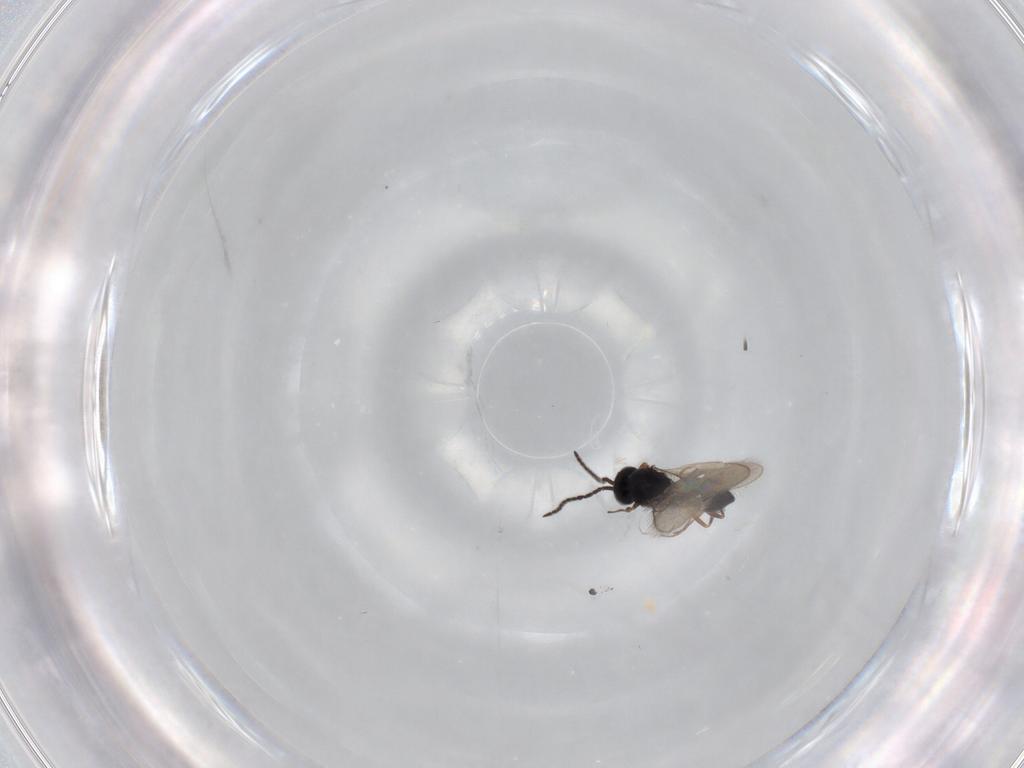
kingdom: Animalia
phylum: Arthropoda
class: Insecta
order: Hymenoptera
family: Scelionidae
